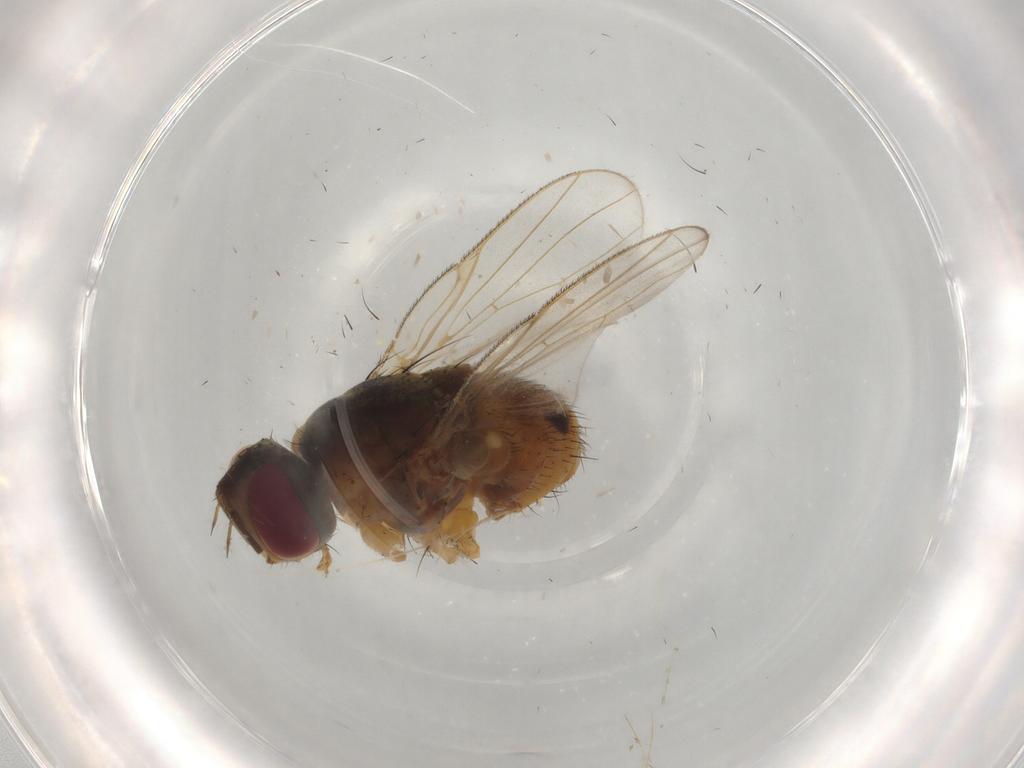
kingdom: Animalia
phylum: Arthropoda
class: Insecta
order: Diptera
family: Muscidae
